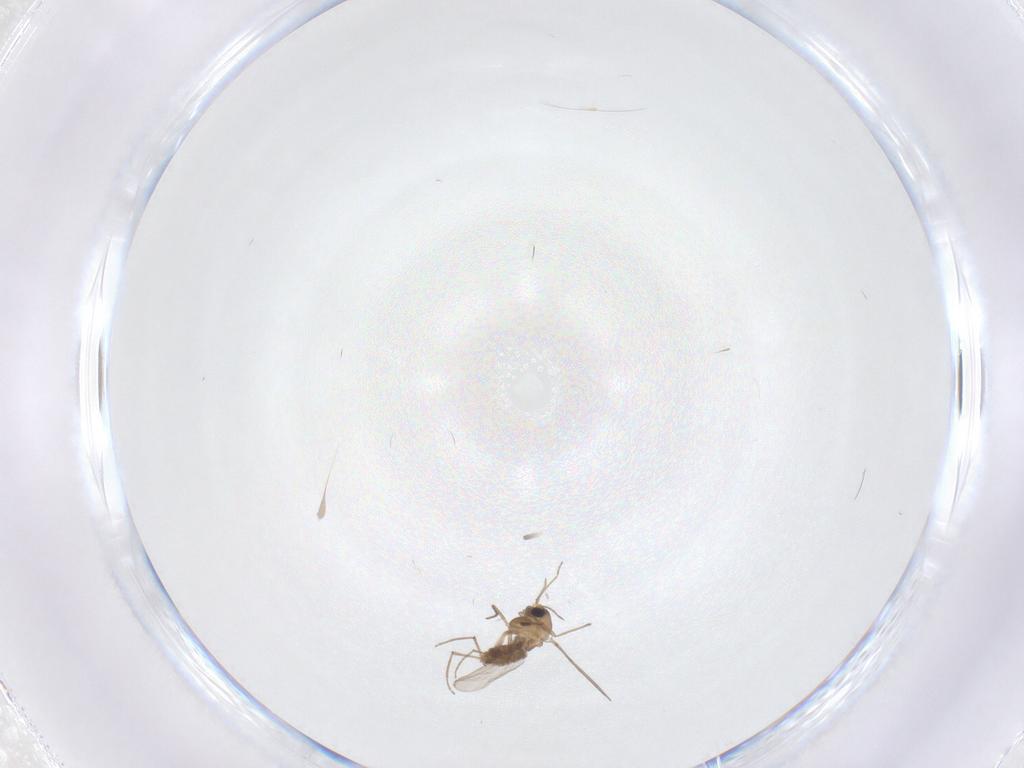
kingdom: Animalia
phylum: Arthropoda
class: Insecta
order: Diptera
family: Chironomidae
